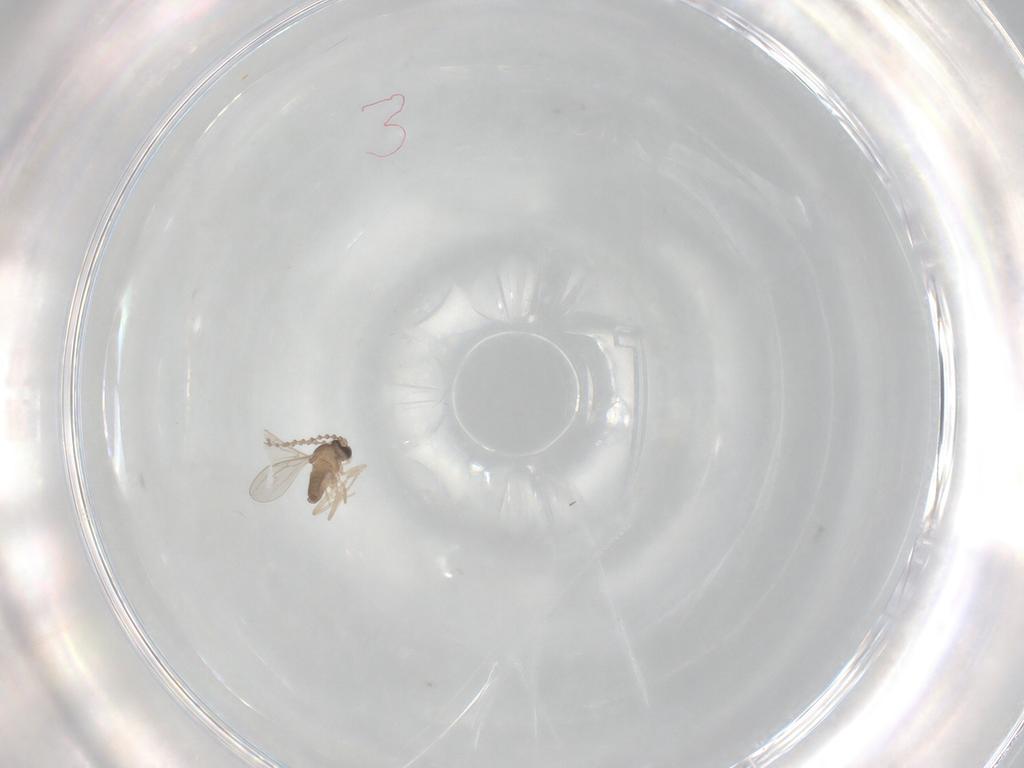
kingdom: Animalia
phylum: Arthropoda
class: Insecta
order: Diptera
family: Cecidomyiidae
